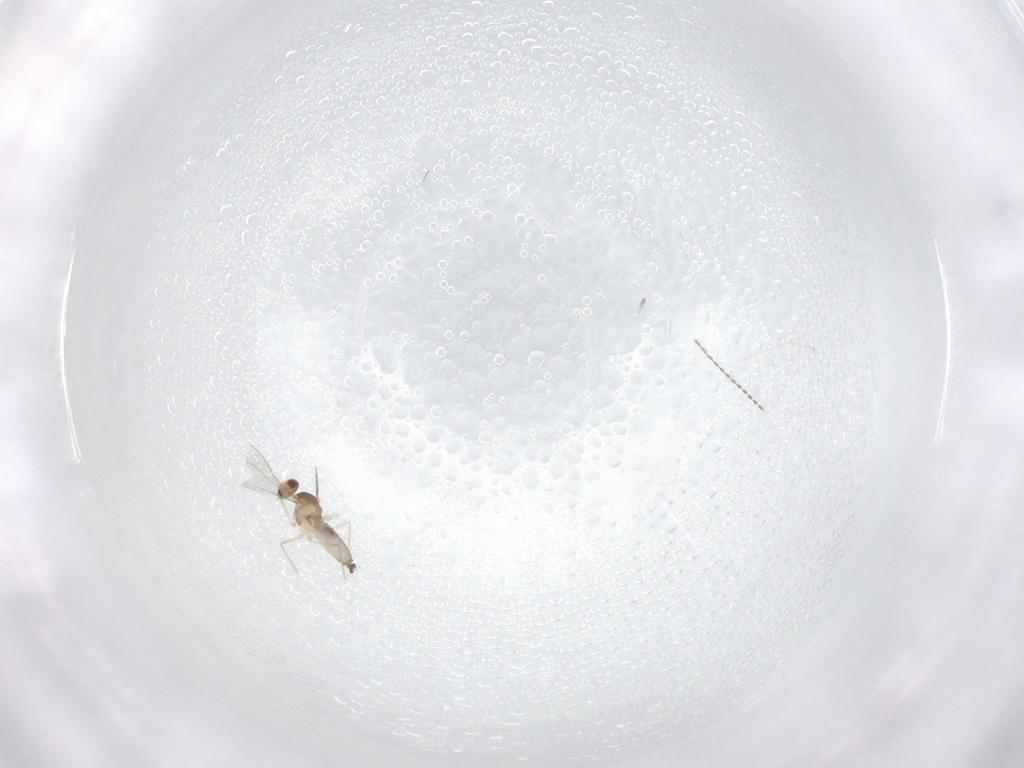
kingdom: Animalia
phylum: Arthropoda
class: Insecta
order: Diptera
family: Cecidomyiidae
